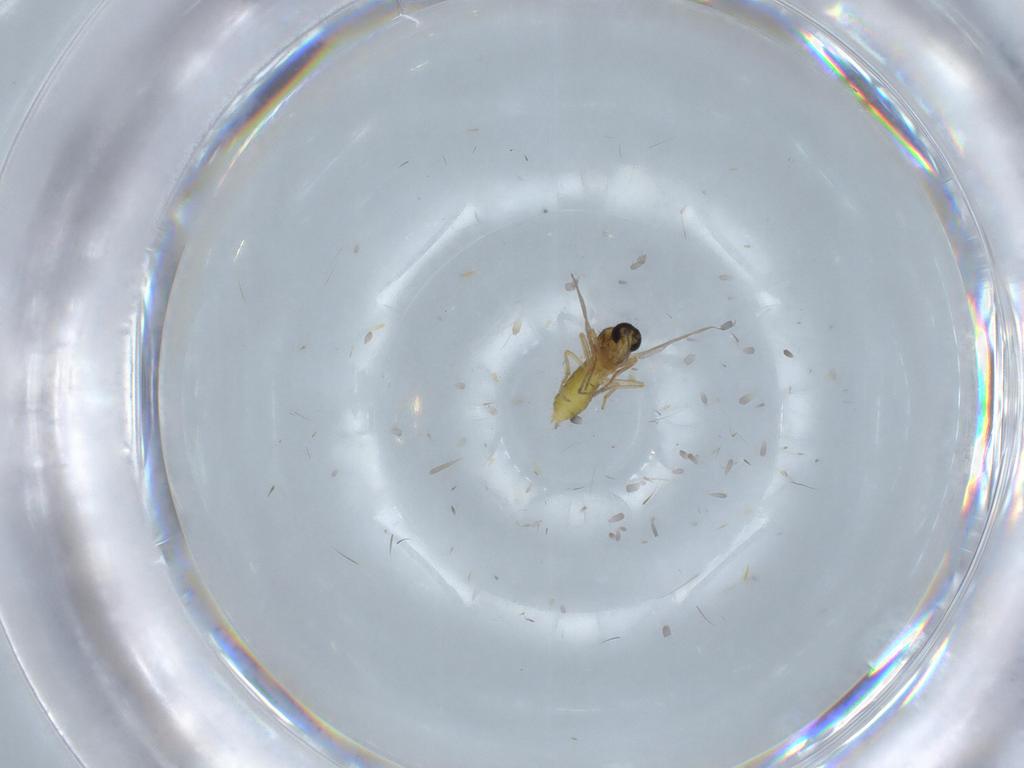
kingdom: Animalia
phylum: Arthropoda
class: Insecta
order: Diptera
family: Ceratopogonidae
